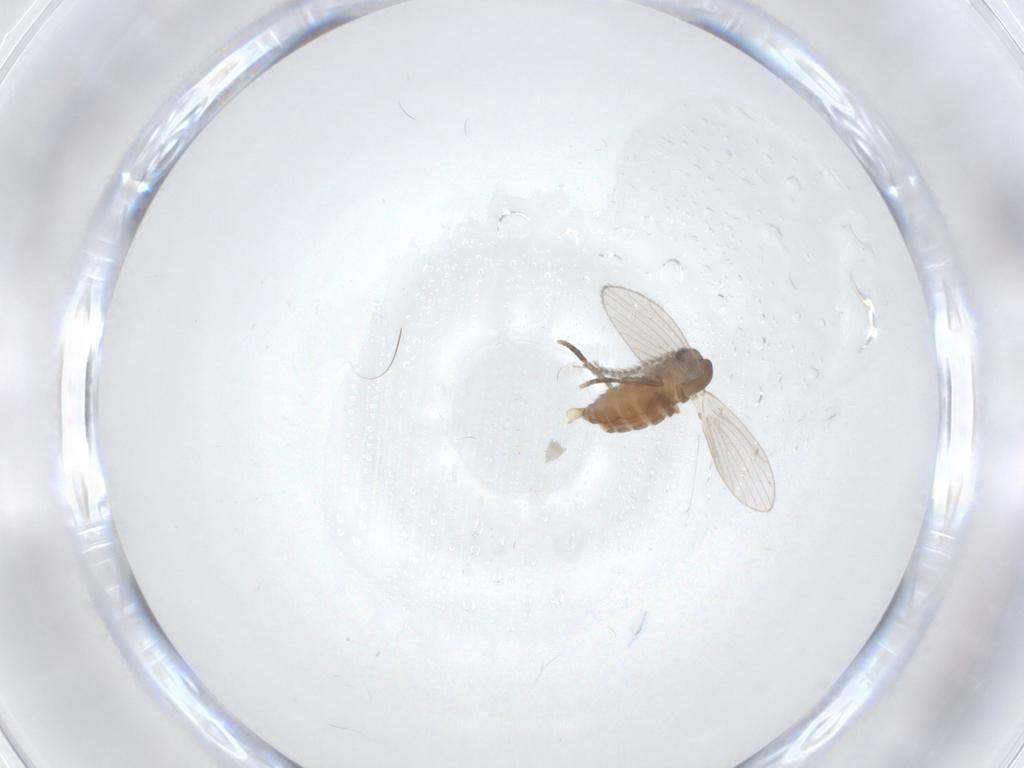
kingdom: Animalia
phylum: Arthropoda
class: Insecta
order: Diptera
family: Psychodidae
